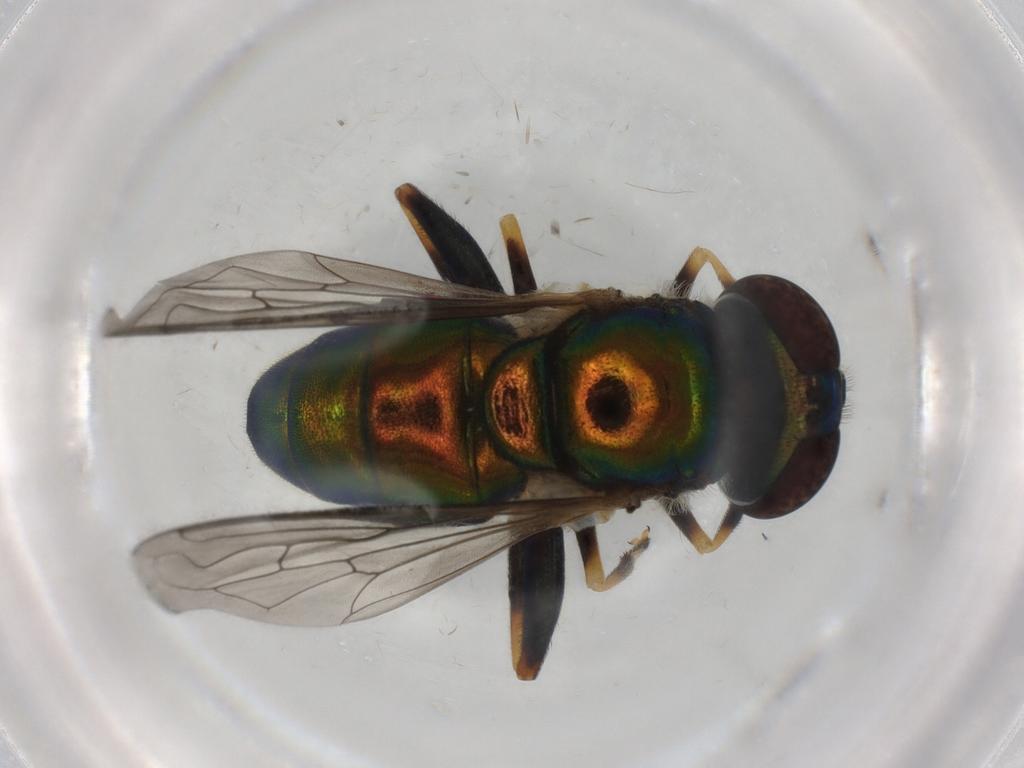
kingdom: Animalia
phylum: Arthropoda
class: Insecta
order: Diptera
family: Psychodidae
